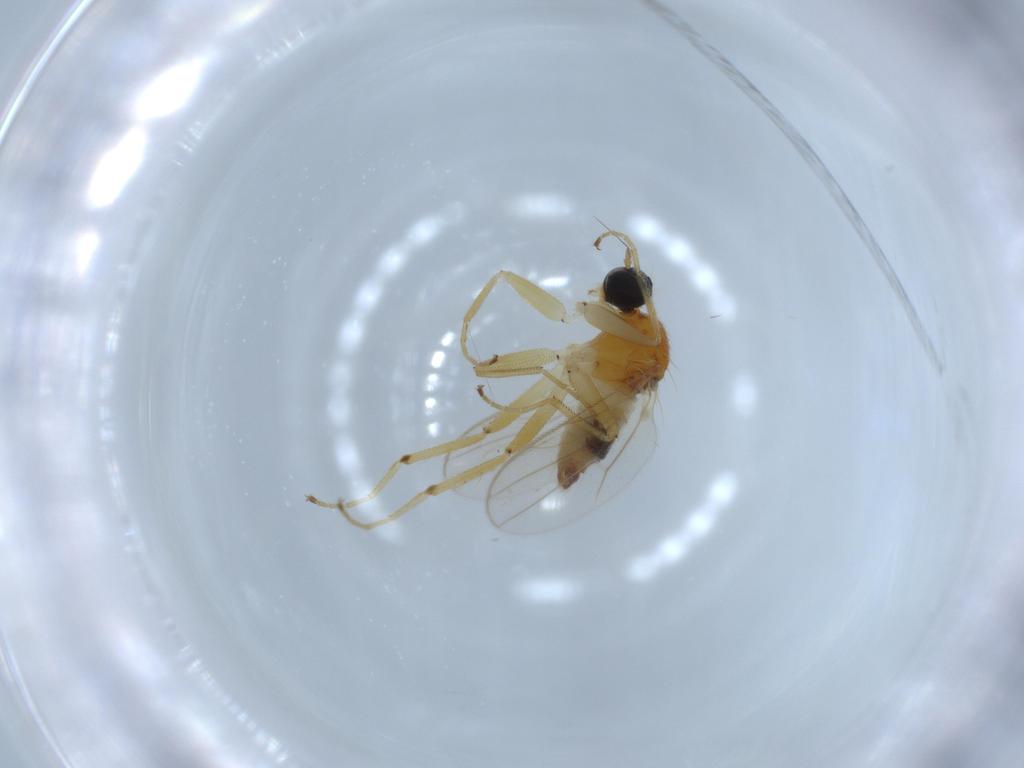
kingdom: Animalia
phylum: Arthropoda
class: Insecta
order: Diptera
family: Hybotidae
